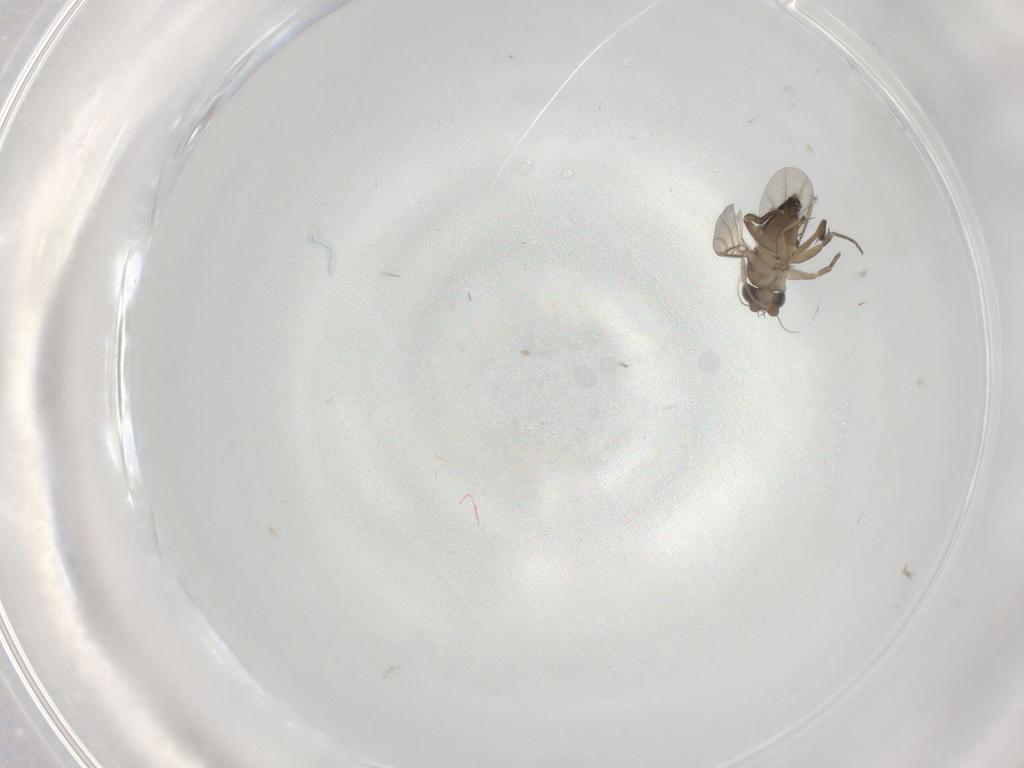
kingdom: Animalia
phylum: Arthropoda
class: Insecta
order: Diptera
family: Phoridae
